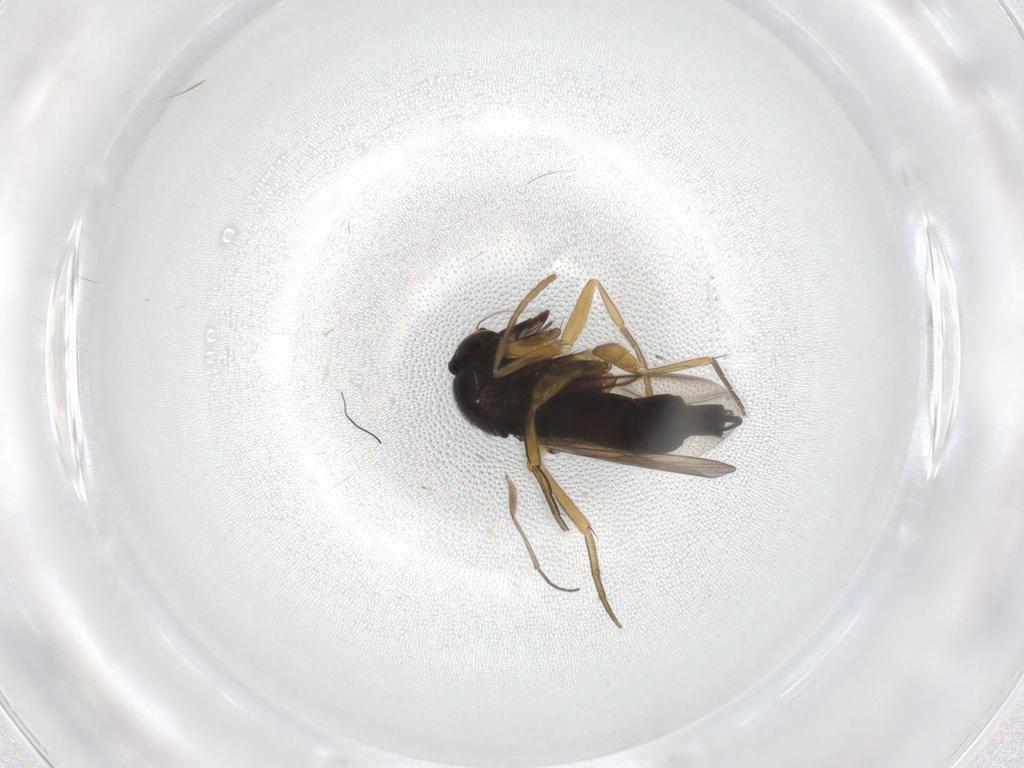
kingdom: Animalia
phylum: Arthropoda
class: Insecta
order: Diptera
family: Cecidomyiidae
